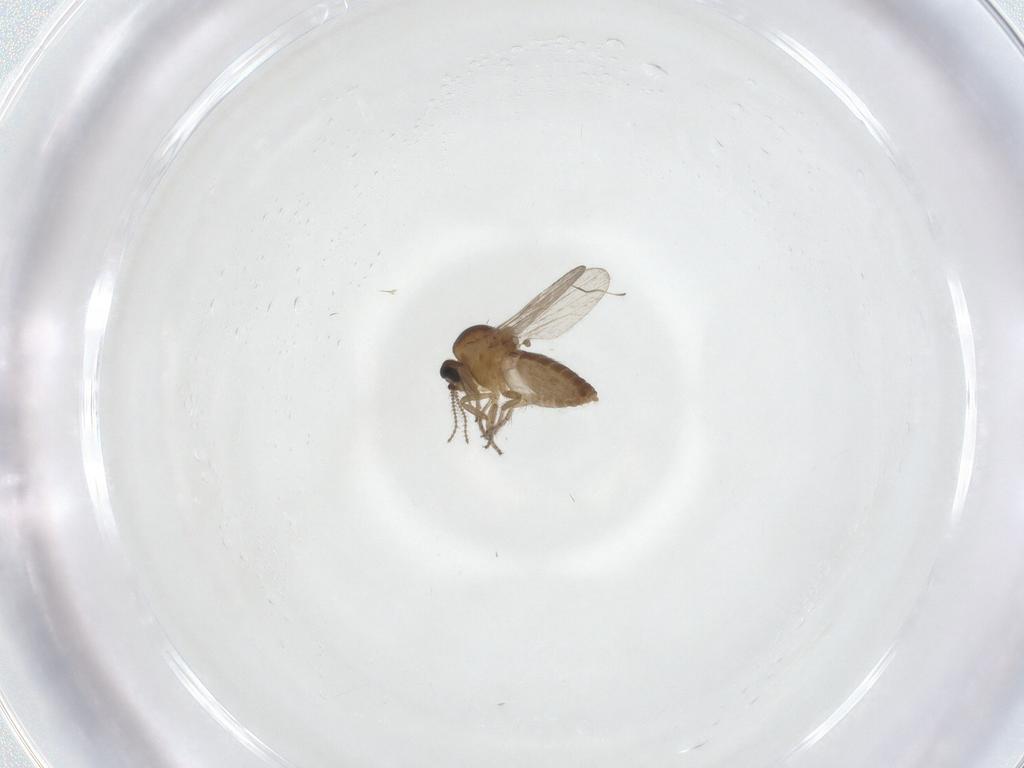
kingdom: Animalia
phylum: Arthropoda
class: Insecta
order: Diptera
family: Ceratopogonidae
